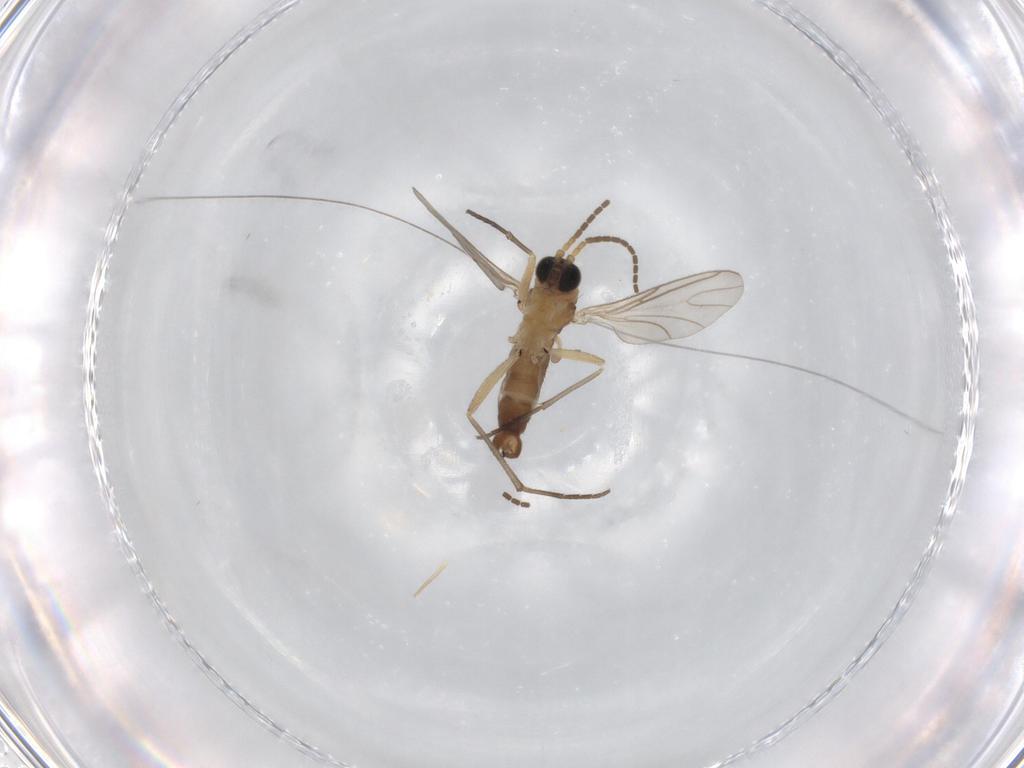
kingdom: Animalia
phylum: Arthropoda
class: Insecta
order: Diptera
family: Sciaridae
